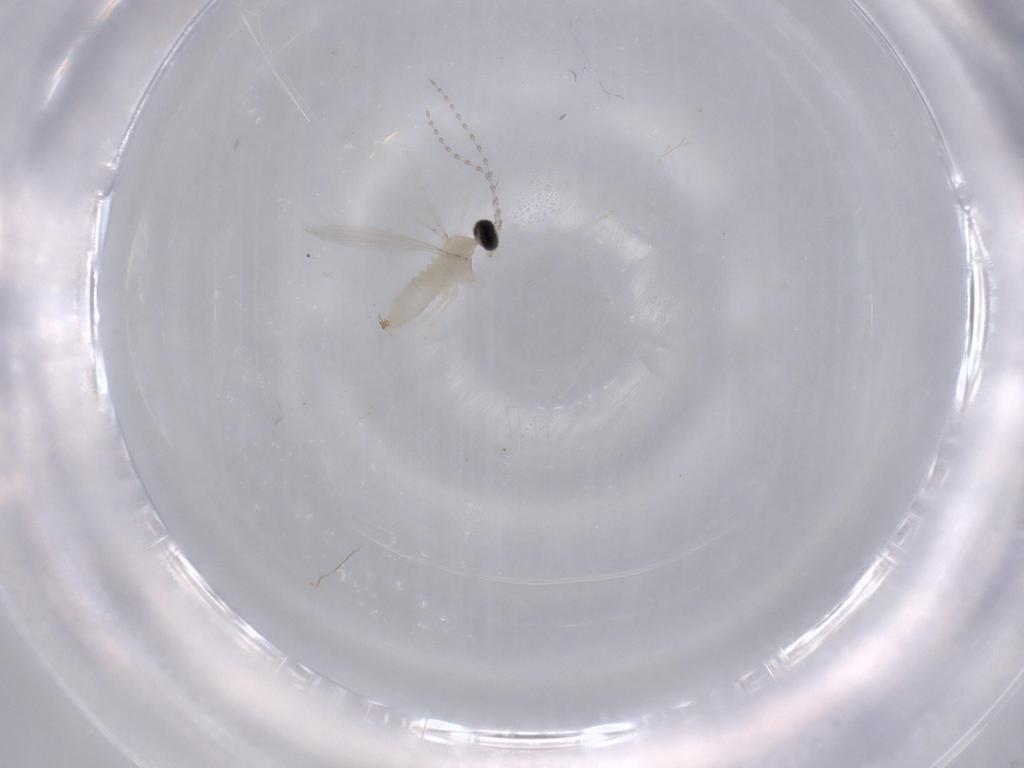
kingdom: Animalia
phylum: Arthropoda
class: Insecta
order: Diptera
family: Cecidomyiidae
